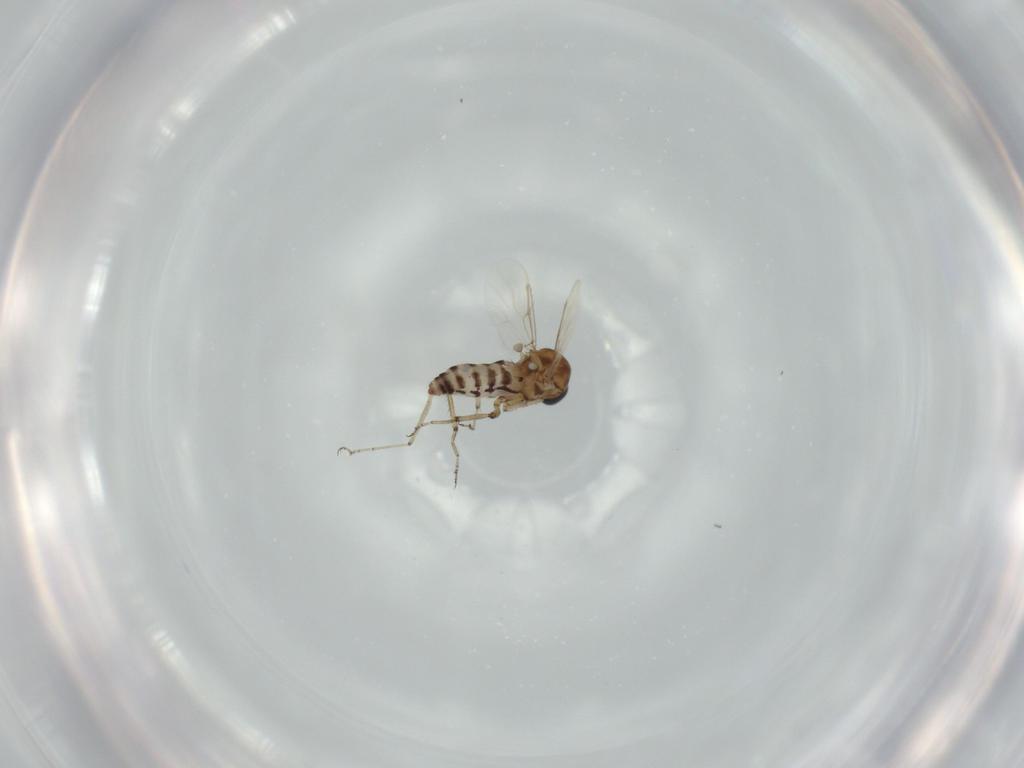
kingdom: Animalia
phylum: Arthropoda
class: Insecta
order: Diptera
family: Ceratopogonidae
